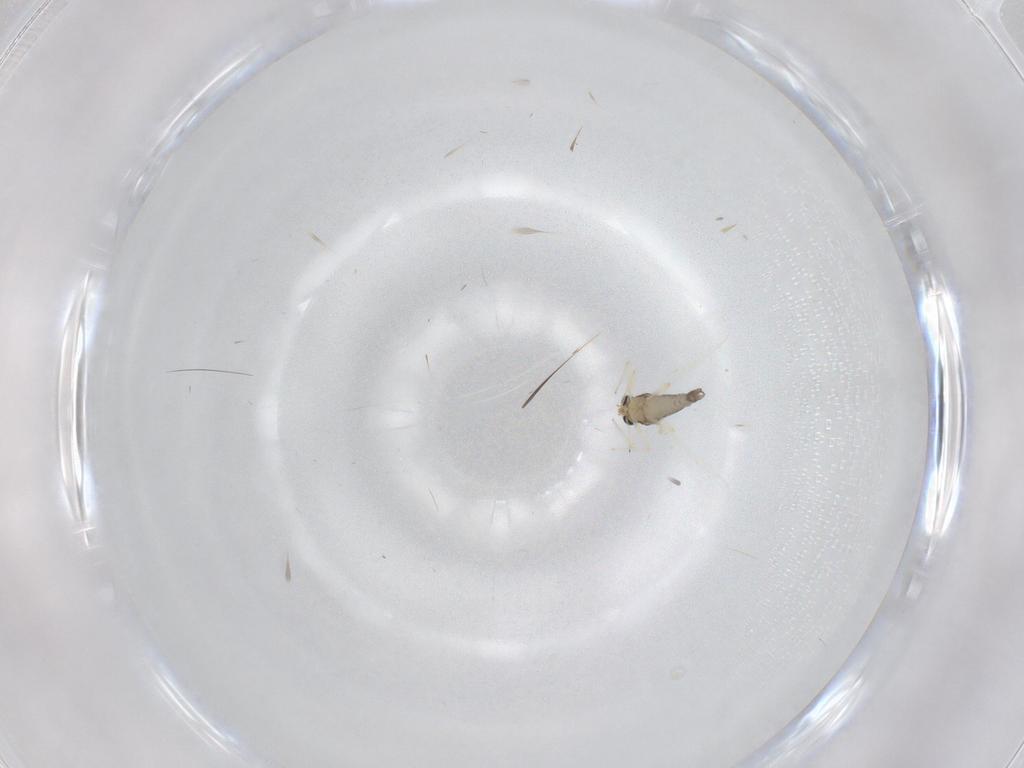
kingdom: Animalia
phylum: Arthropoda
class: Insecta
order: Diptera
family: Chironomidae
